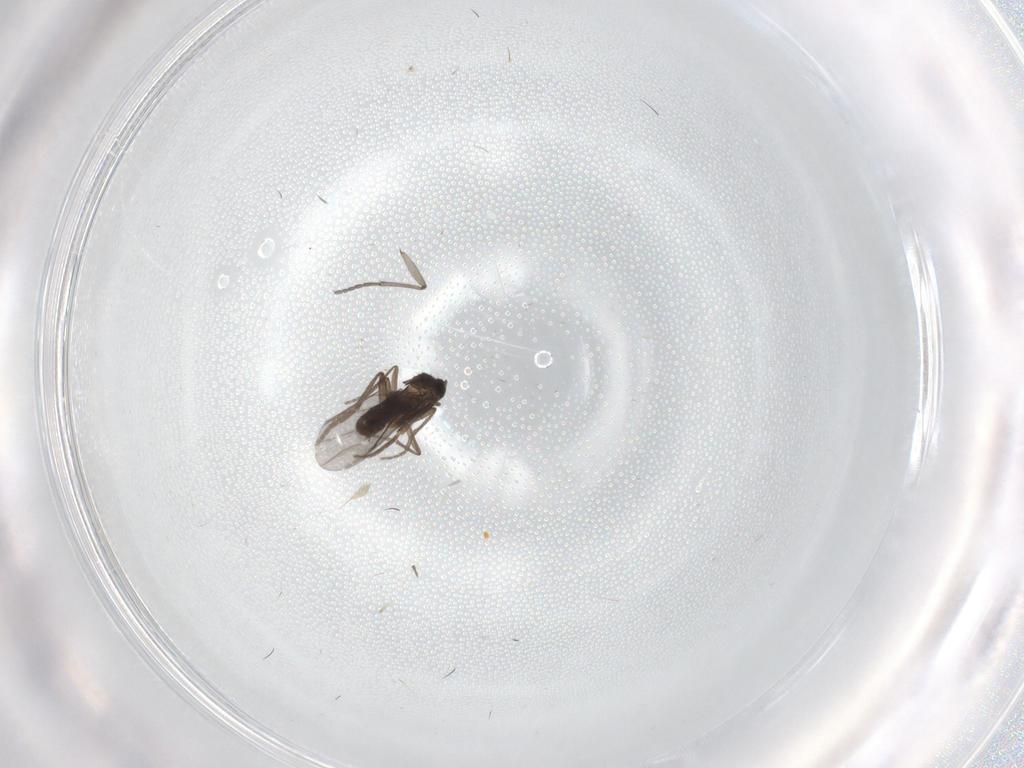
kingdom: Animalia
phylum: Arthropoda
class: Insecta
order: Diptera
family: Phoridae
